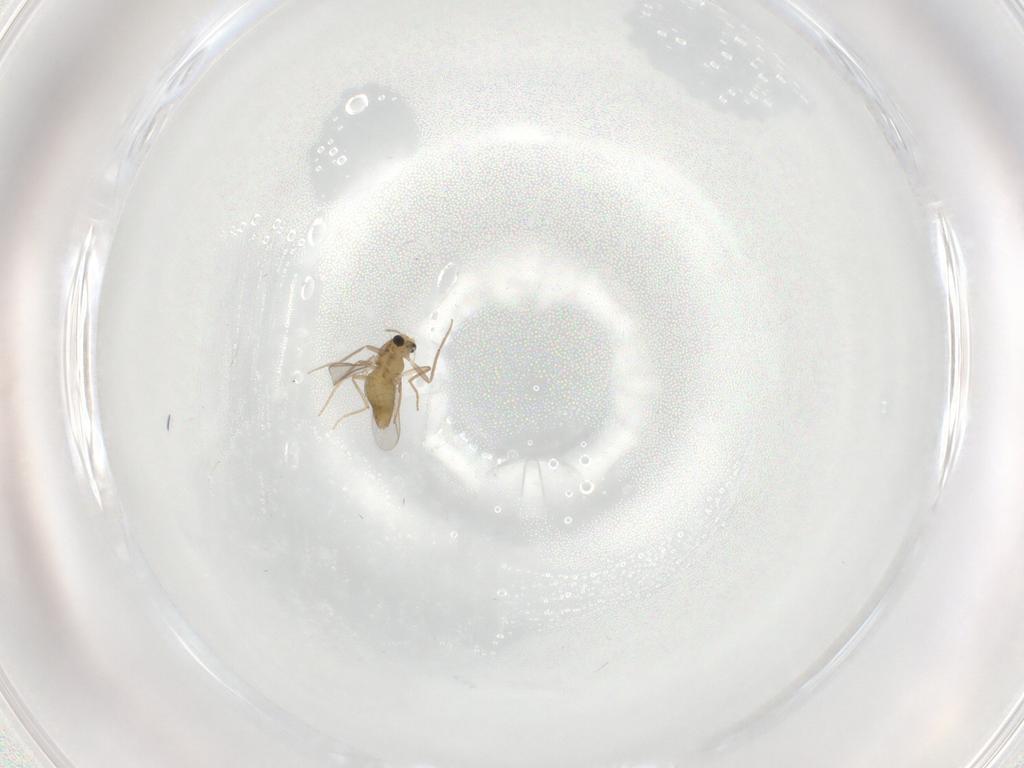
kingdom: Animalia
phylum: Arthropoda
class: Insecta
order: Diptera
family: Chironomidae
